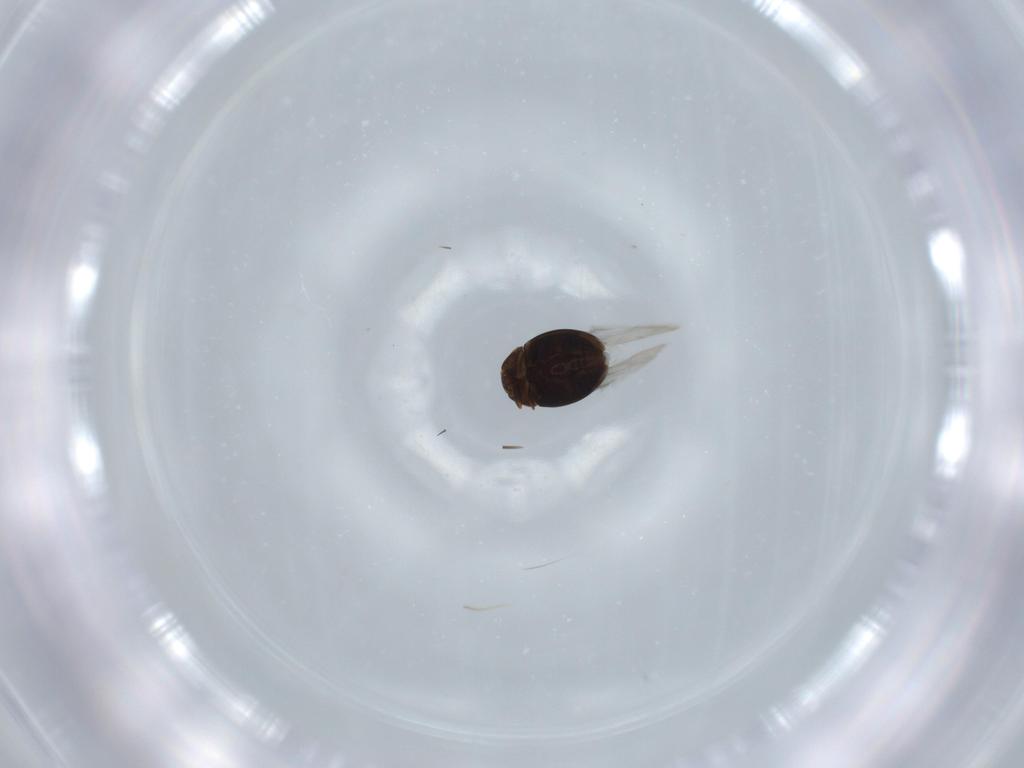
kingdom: Animalia
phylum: Arthropoda
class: Insecta
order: Coleoptera
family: Corylophidae
